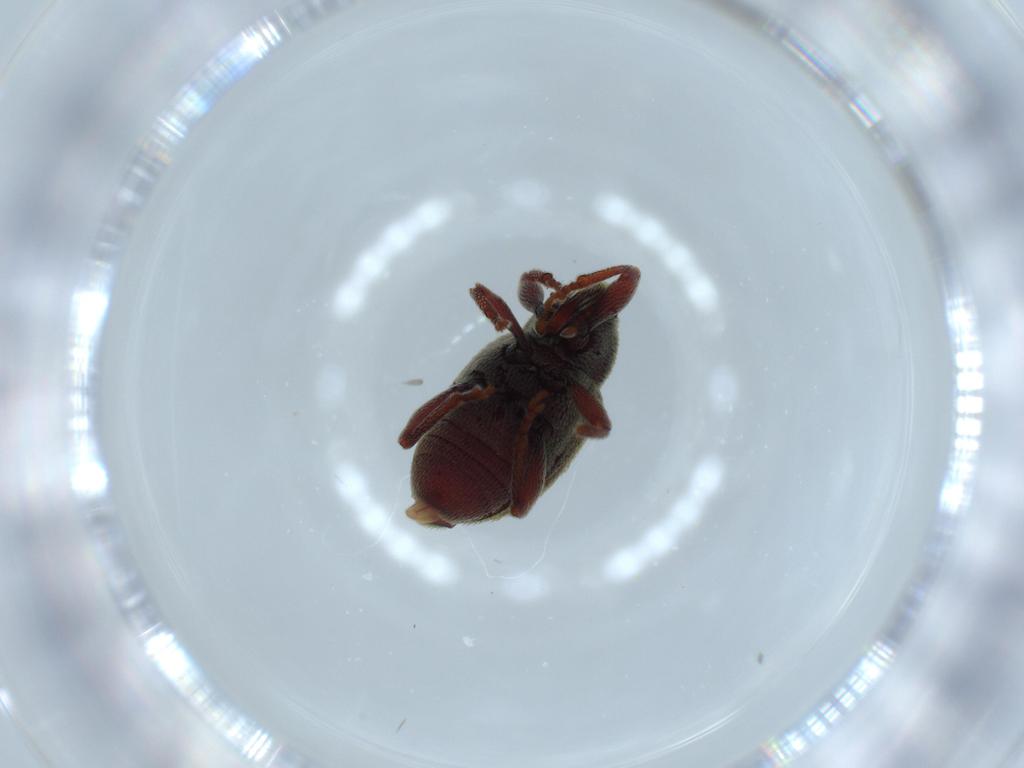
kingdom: Animalia
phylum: Arthropoda
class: Insecta
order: Coleoptera
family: Curculionidae
